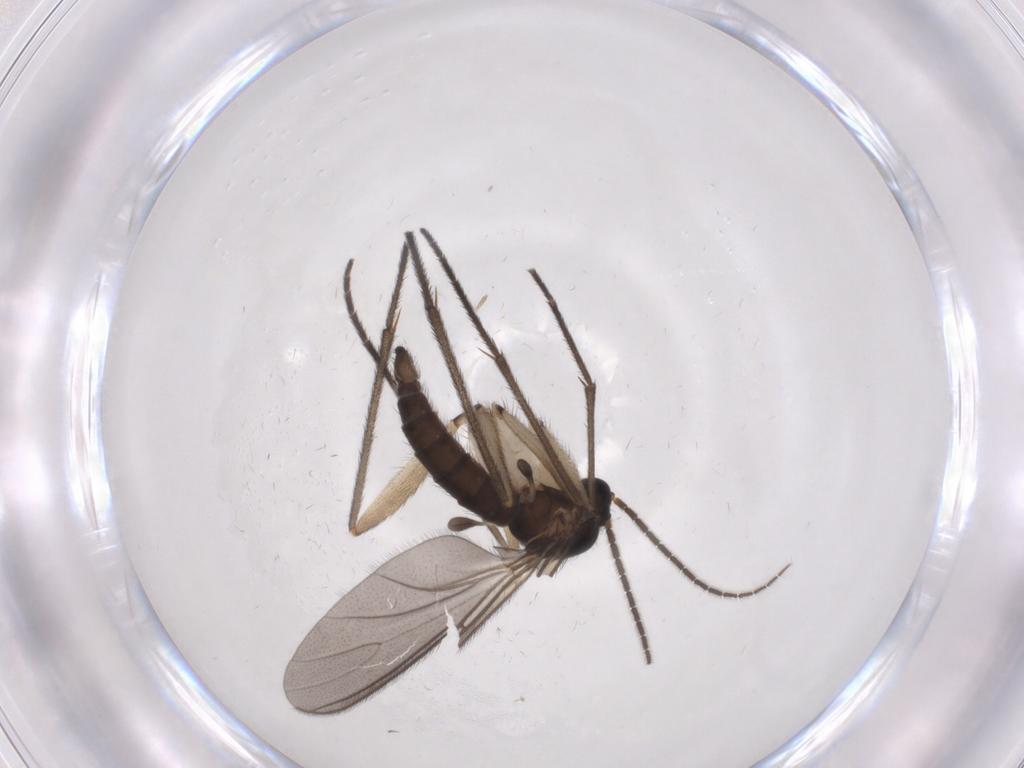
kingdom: Animalia
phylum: Arthropoda
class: Insecta
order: Diptera
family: Sciaridae
